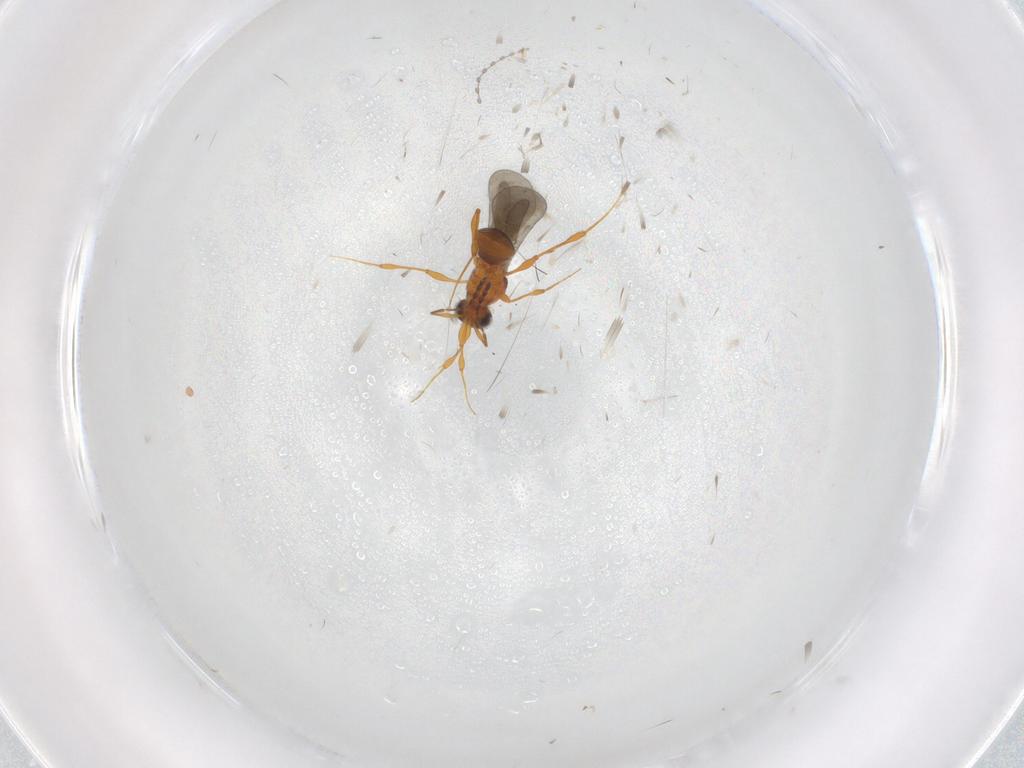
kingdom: Animalia
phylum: Arthropoda
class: Insecta
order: Hymenoptera
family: Platygastridae
